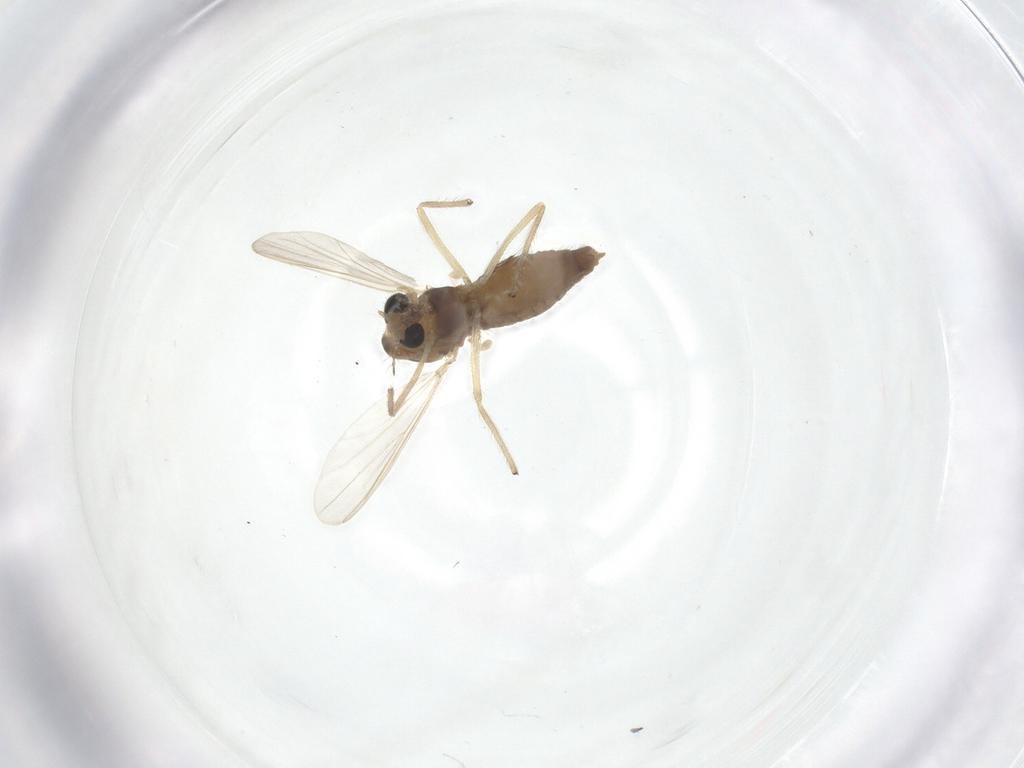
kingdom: Animalia
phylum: Arthropoda
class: Insecta
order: Diptera
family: Chironomidae
